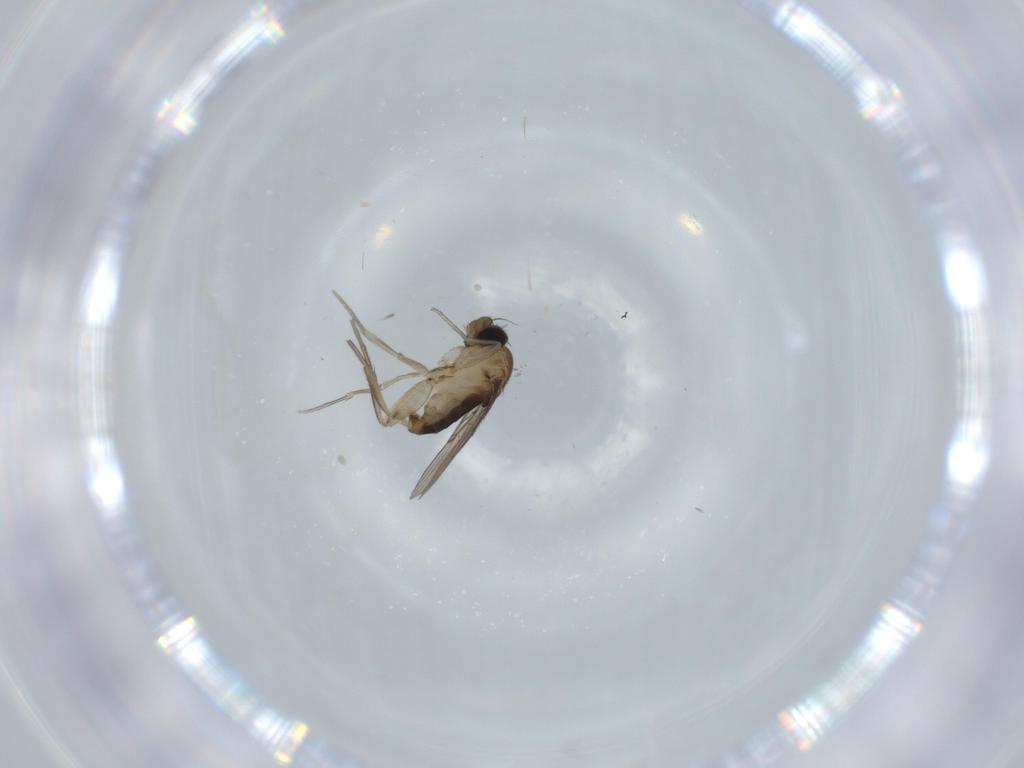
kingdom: Animalia
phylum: Arthropoda
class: Insecta
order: Diptera
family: Phoridae
